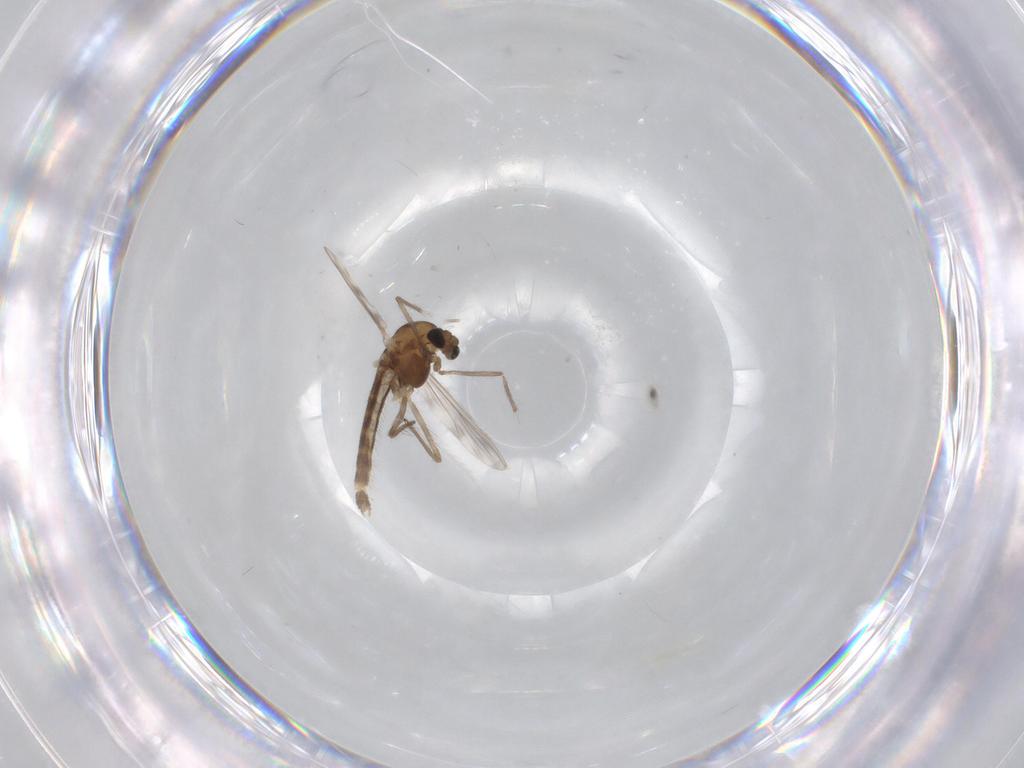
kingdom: Animalia
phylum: Arthropoda
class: Insecta
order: Diptera
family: Chironomidae
